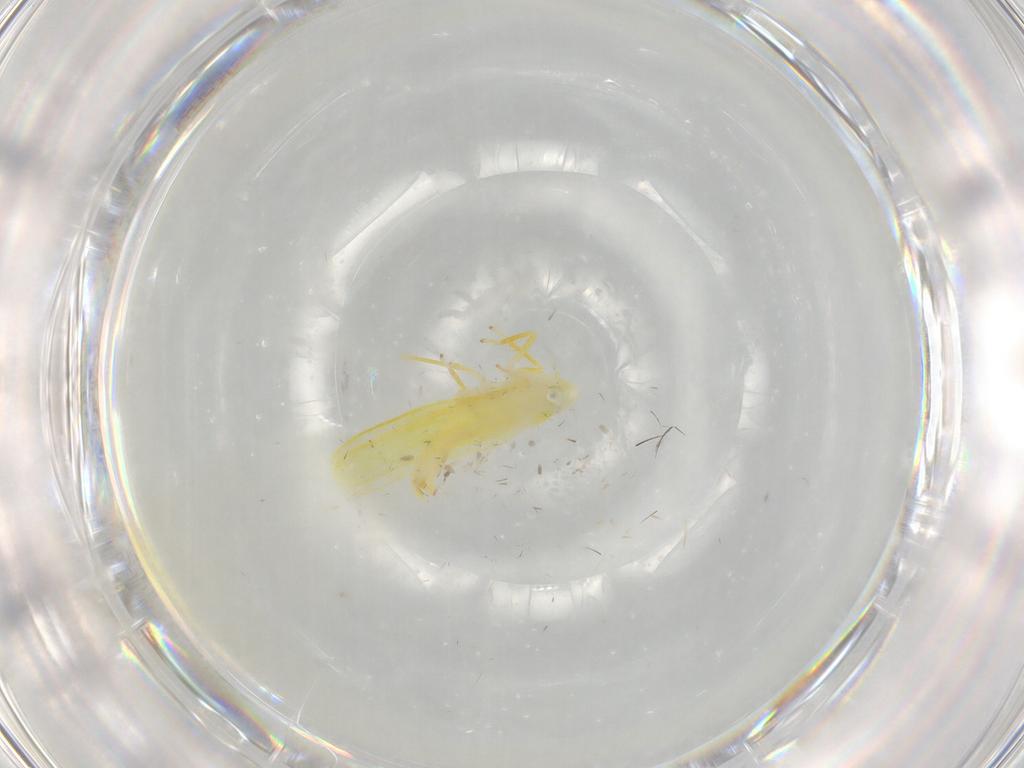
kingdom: Animalia
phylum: Arthropoda
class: Insecta
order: Hemiptera
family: Cicadellidae
